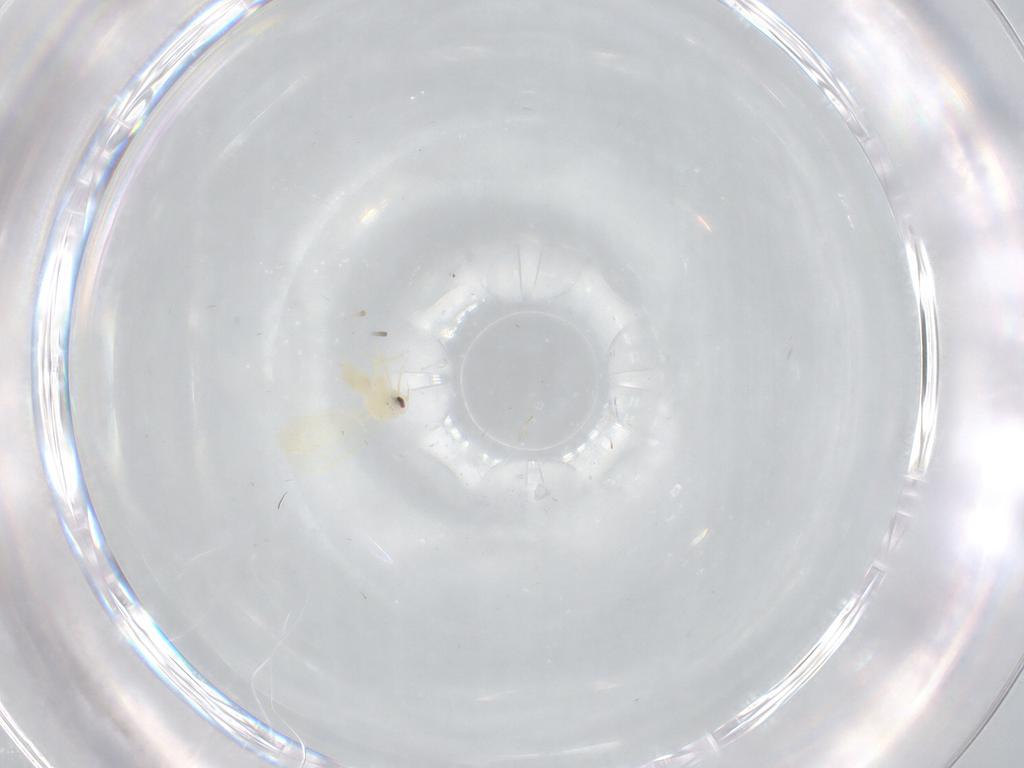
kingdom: Animalia
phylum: Arthropoda
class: Insecta
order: Hemiptera
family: Aleyrodidae
